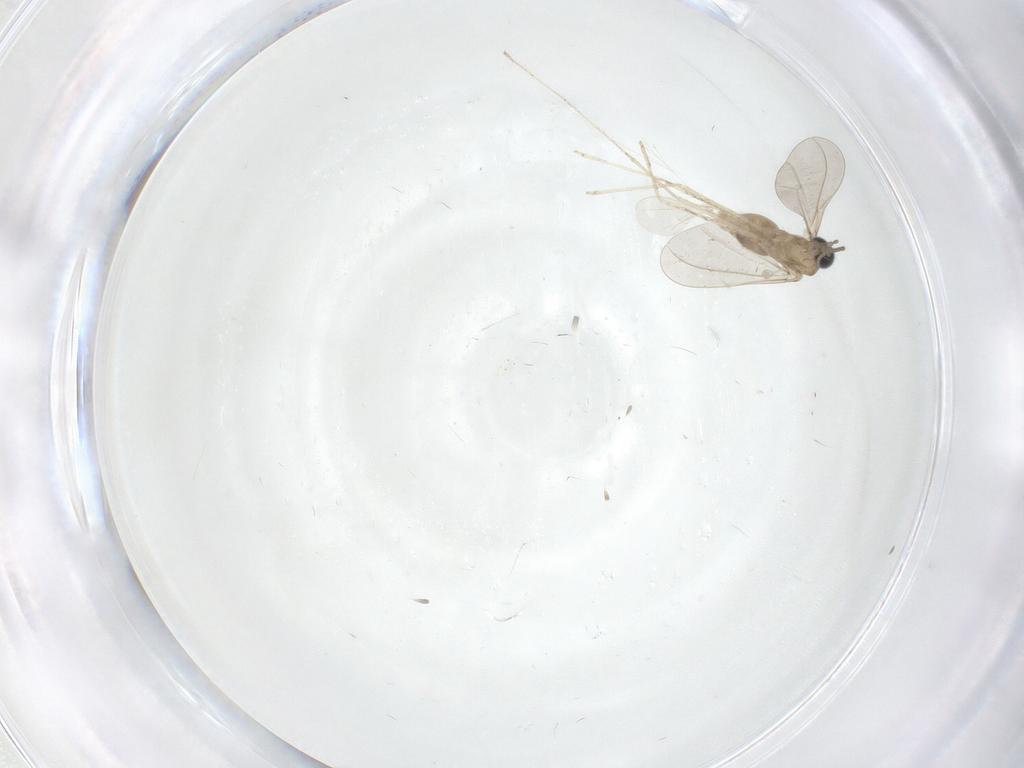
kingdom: Animalia
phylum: Arthropoda
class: Insecta
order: Diptera
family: Cecidomyiidae
